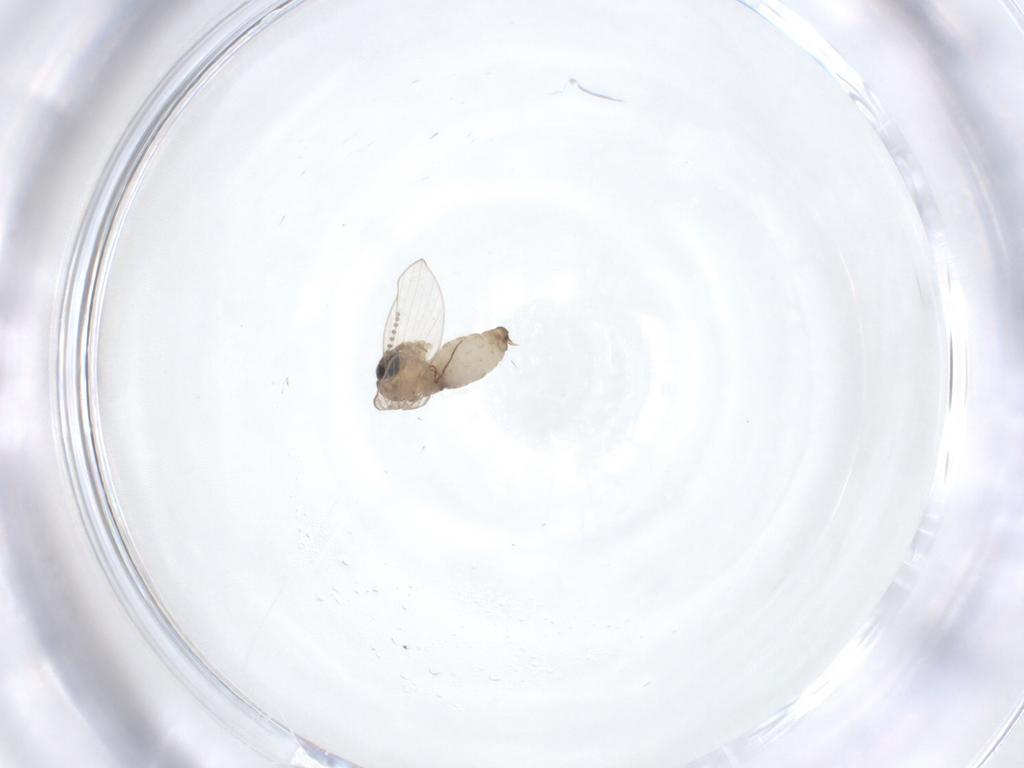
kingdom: Animalia
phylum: Arthropoda
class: Insecta
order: Diptera
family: Psychodidae
